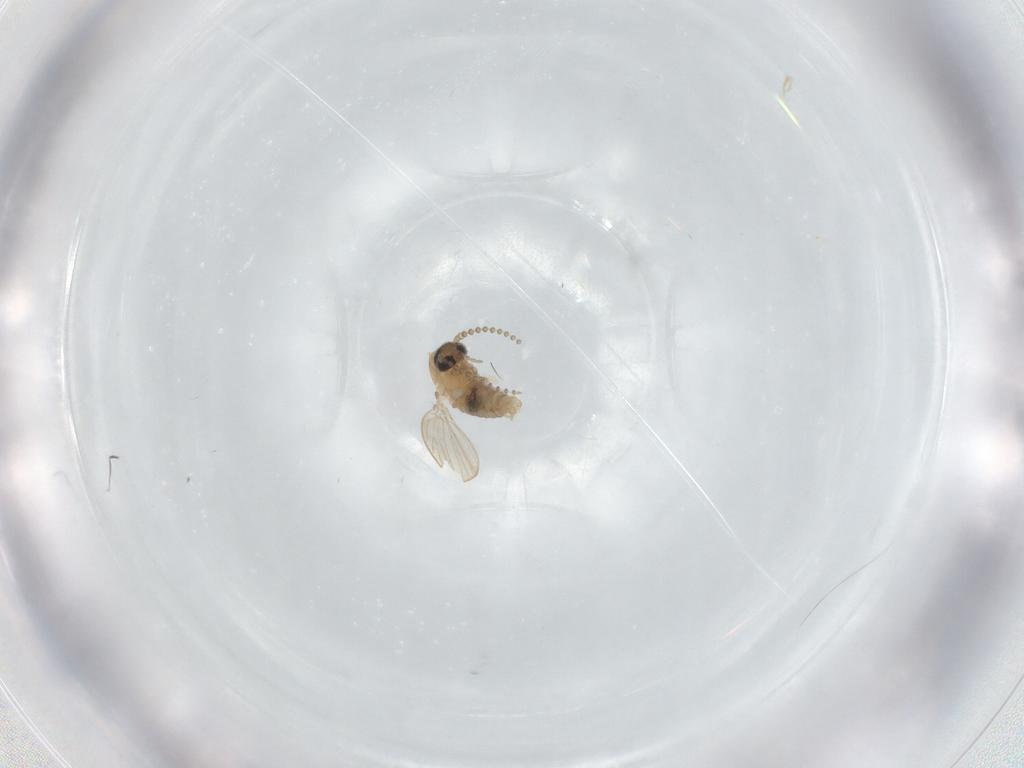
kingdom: Animalia
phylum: Arthropoda
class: Insecta
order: Diptera
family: Psychodidae
